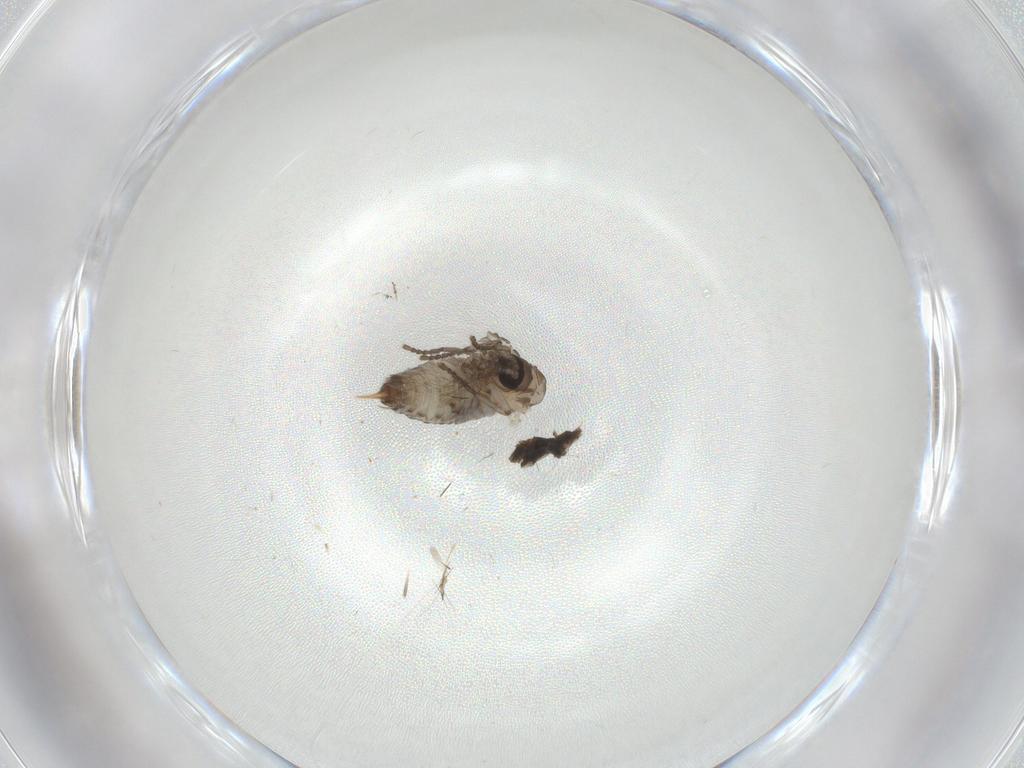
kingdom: Animalia
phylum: Arthropoda
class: Insecta
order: Diptera
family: Psychodidae
